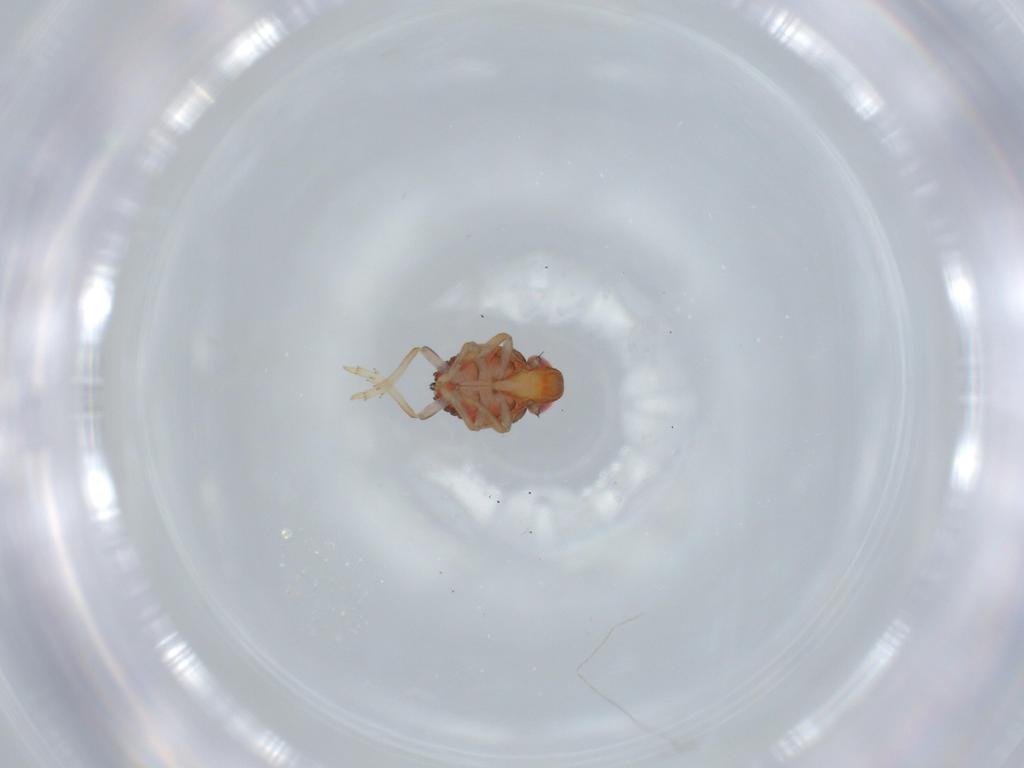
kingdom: Animalia
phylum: Arthropoda
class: Insecta
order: Hemiptera
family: Issidae
